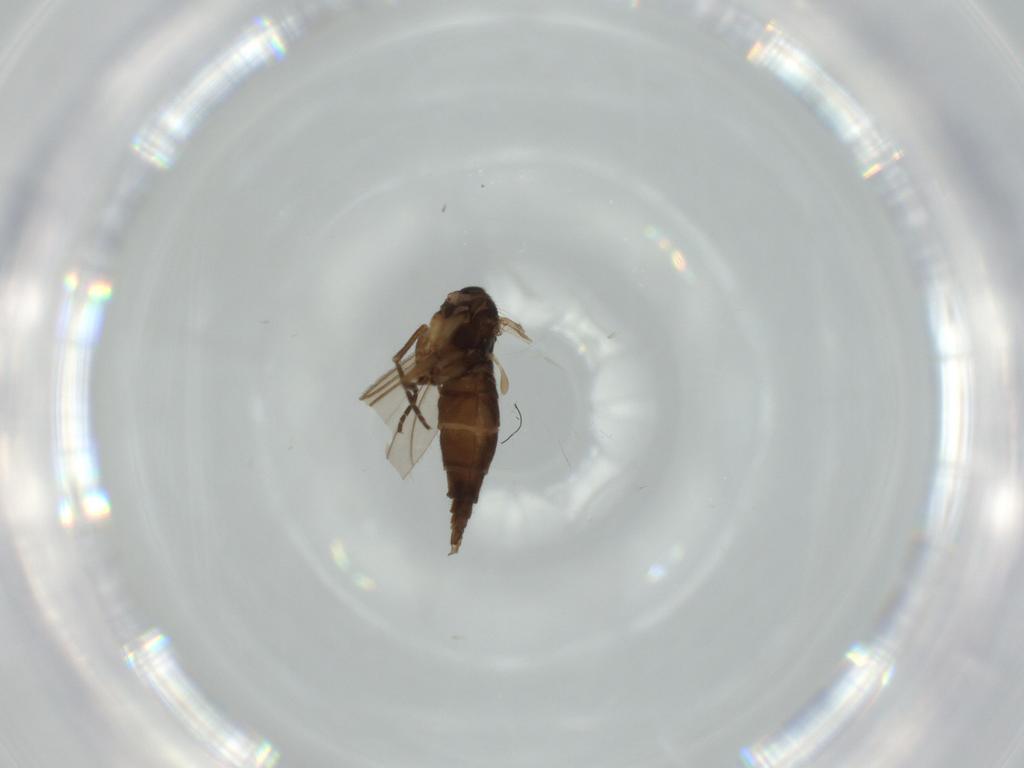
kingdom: Animalia
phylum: Arthropoda
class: Insecta
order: Diptera
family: Sciaridae
